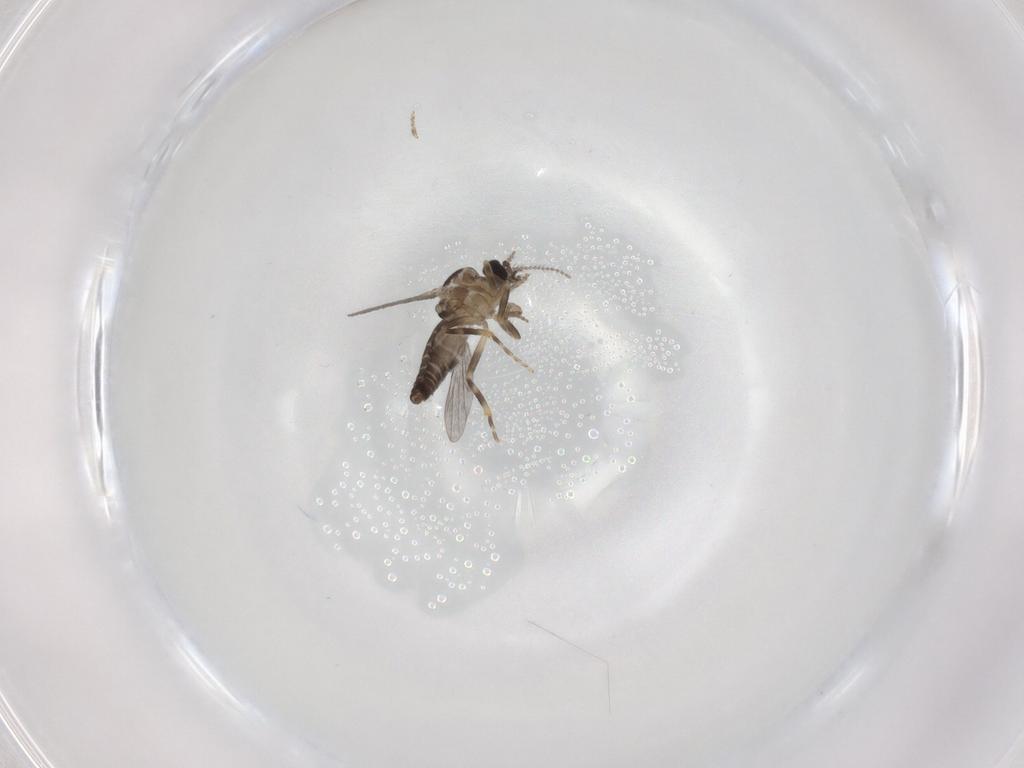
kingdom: Animalia
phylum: Arthropoda
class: Insecta
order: Diptera
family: Ceratopogonidae
